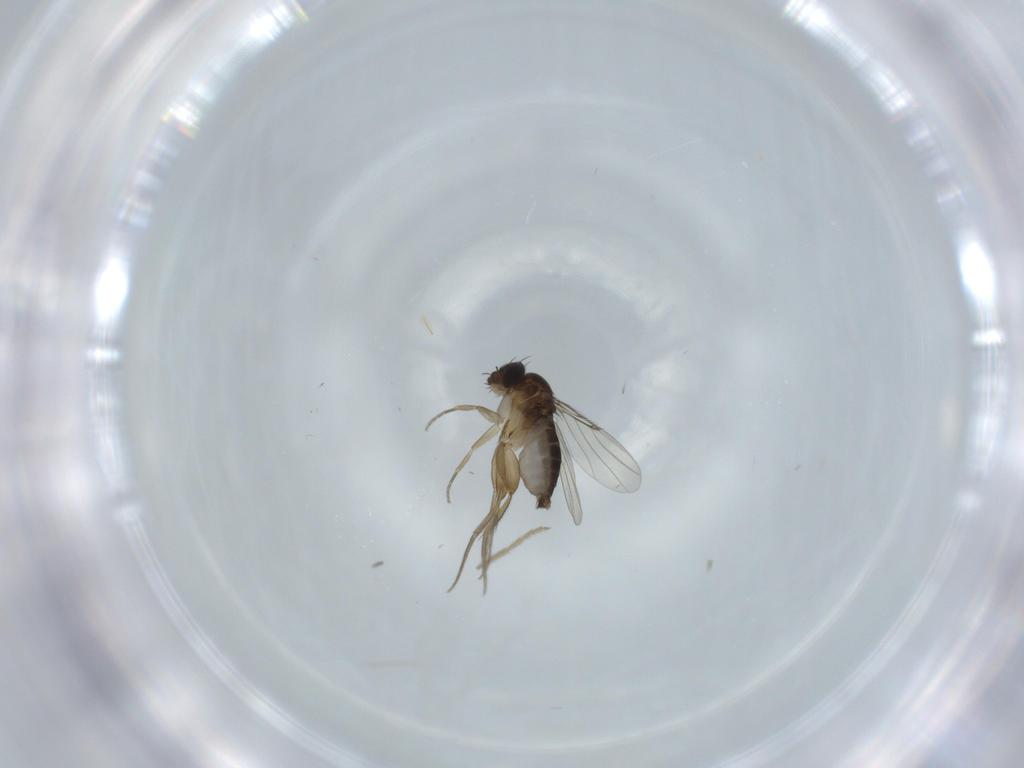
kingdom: Animalia
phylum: Arthropoda
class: Insecta
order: Diptera
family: Phoridae
